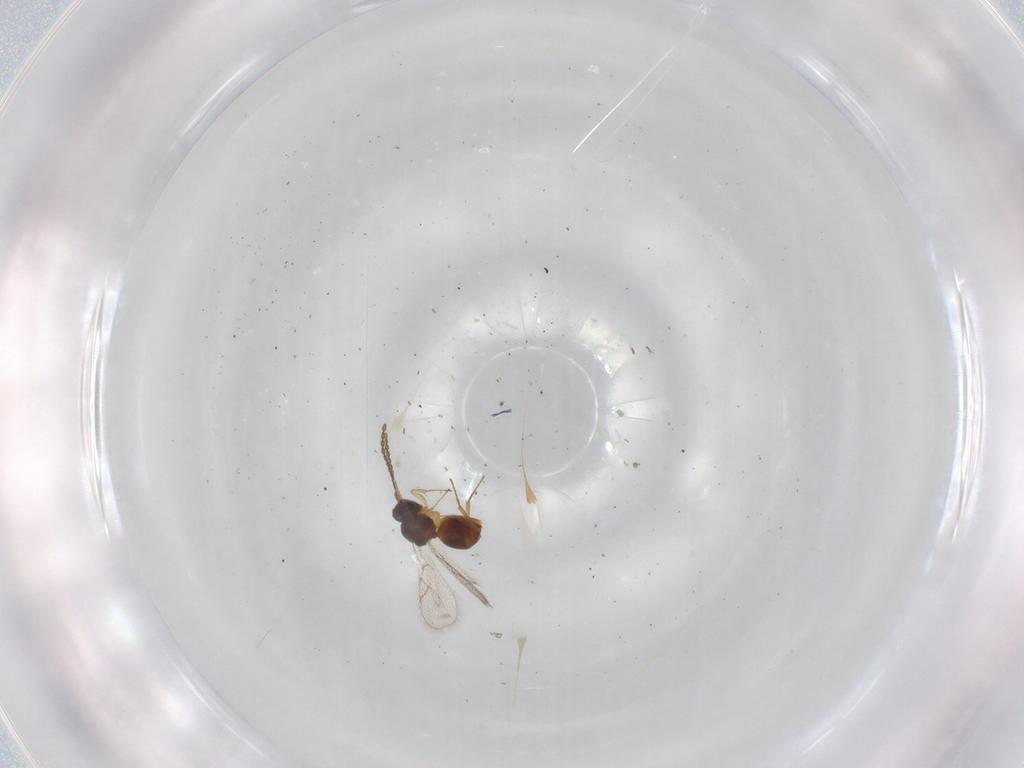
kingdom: Animalia
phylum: Arthropoda
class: Insecta
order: Hymenoptera
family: Figitidae
